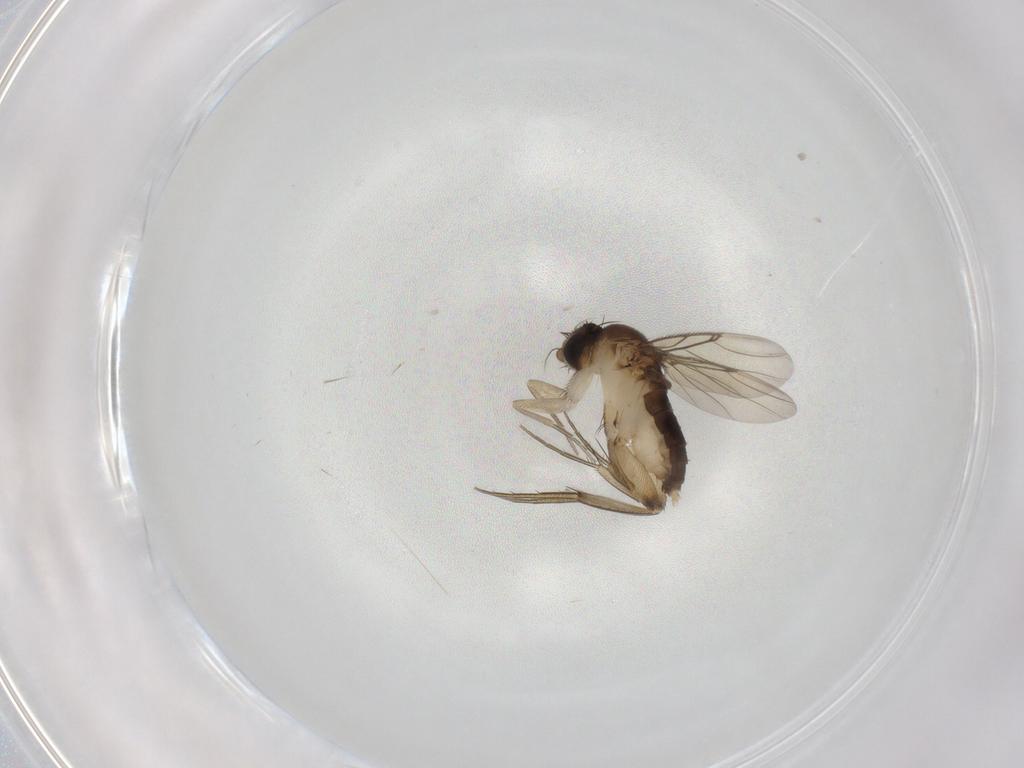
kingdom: Animalia
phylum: Arthropoda
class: Insecta
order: Diptera
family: Phoridae
